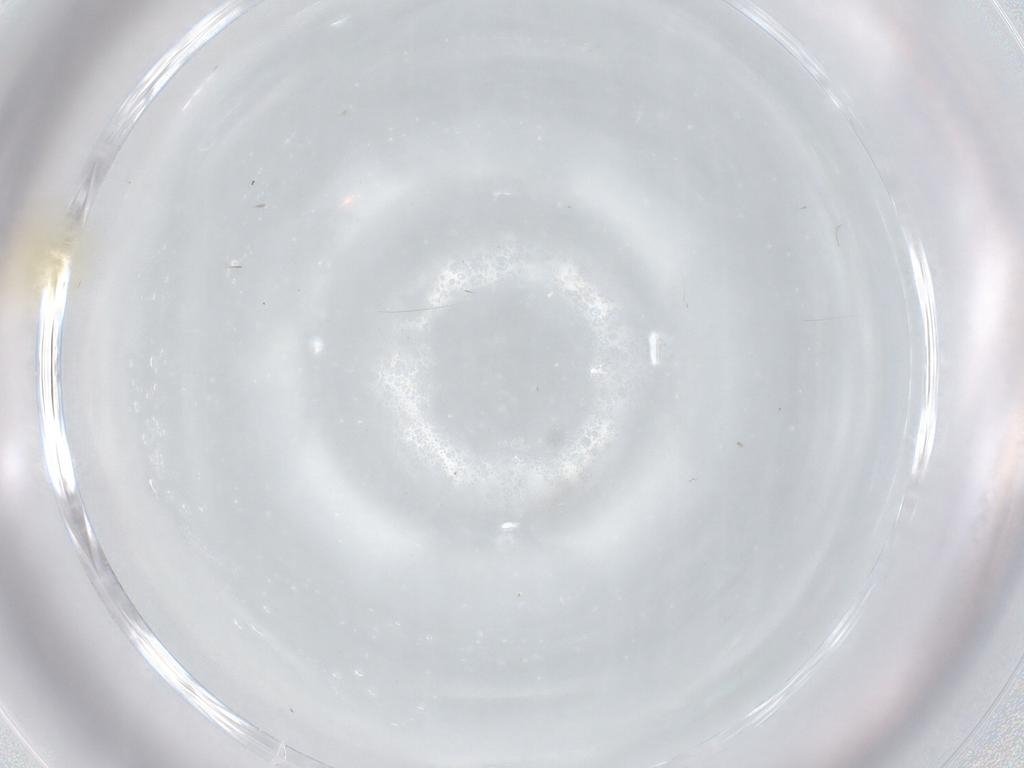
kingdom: Animalia
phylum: Arthropoda
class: Insecta
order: Hemiptera
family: Aleyrodidae
